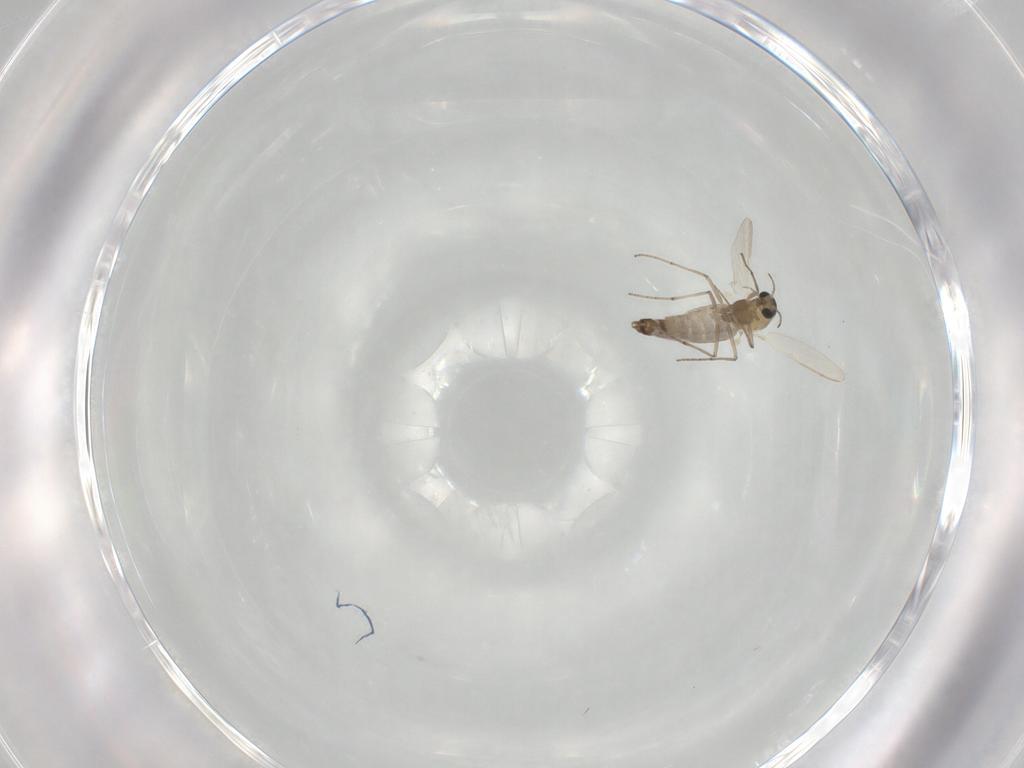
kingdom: Animalia
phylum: Arthropoda
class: Insecta
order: Diptera
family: Chironomidae
